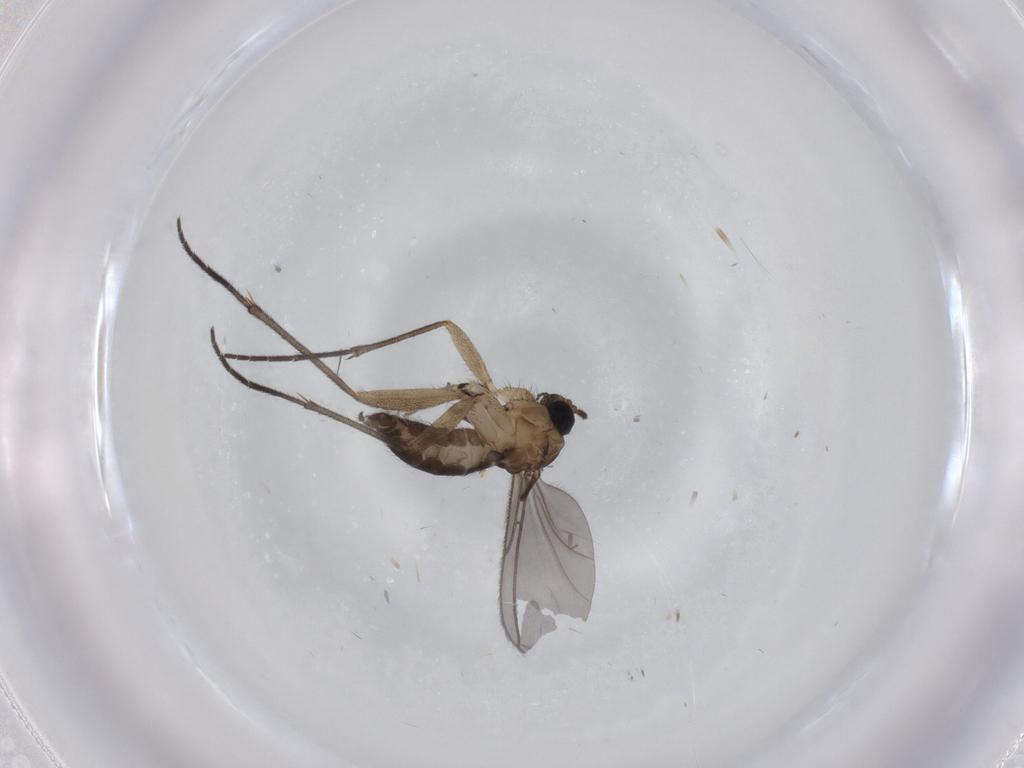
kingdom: Animalia
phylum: Arthropoda
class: Insecta
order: Diptera
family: Sciaridae
